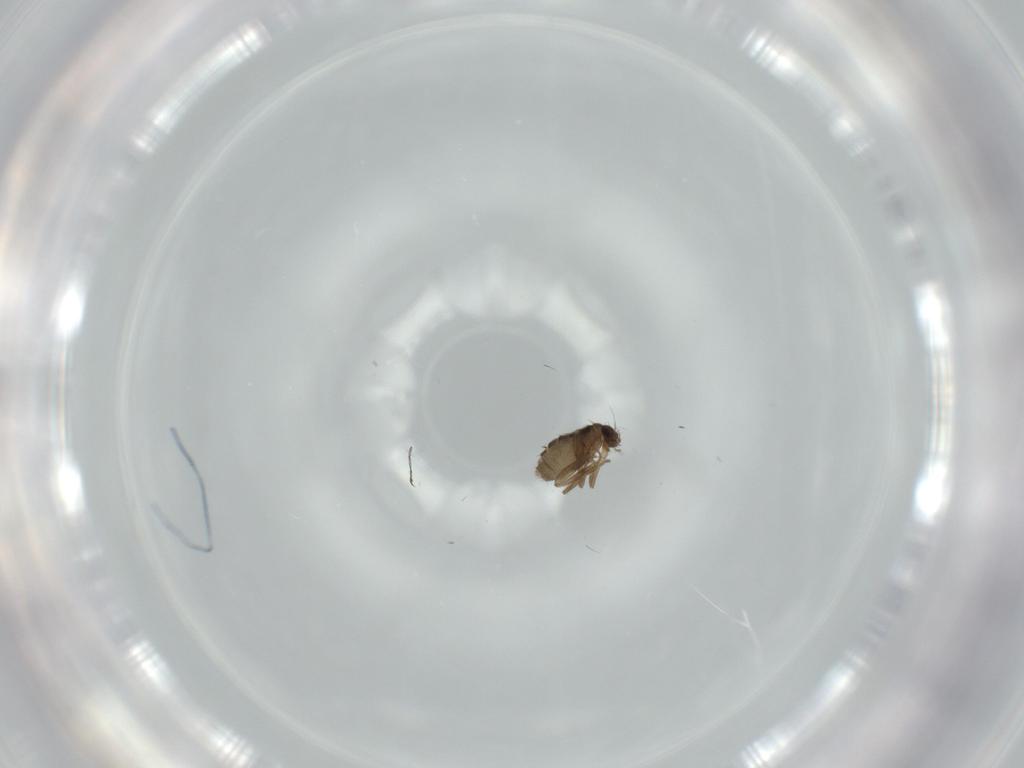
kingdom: Animalia
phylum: Arthropoda
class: Insecta
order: Diptera
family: Phoridae
